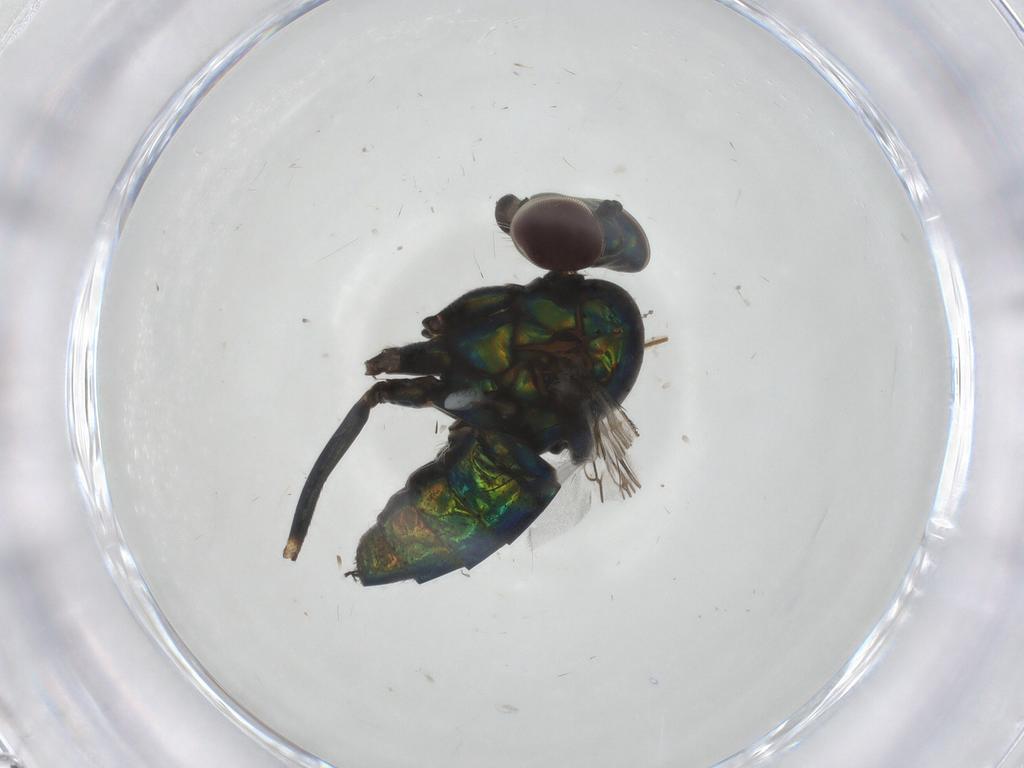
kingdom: Animalia
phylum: Arthropoda
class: Insecta
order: Diptera
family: Dolichopodidae
